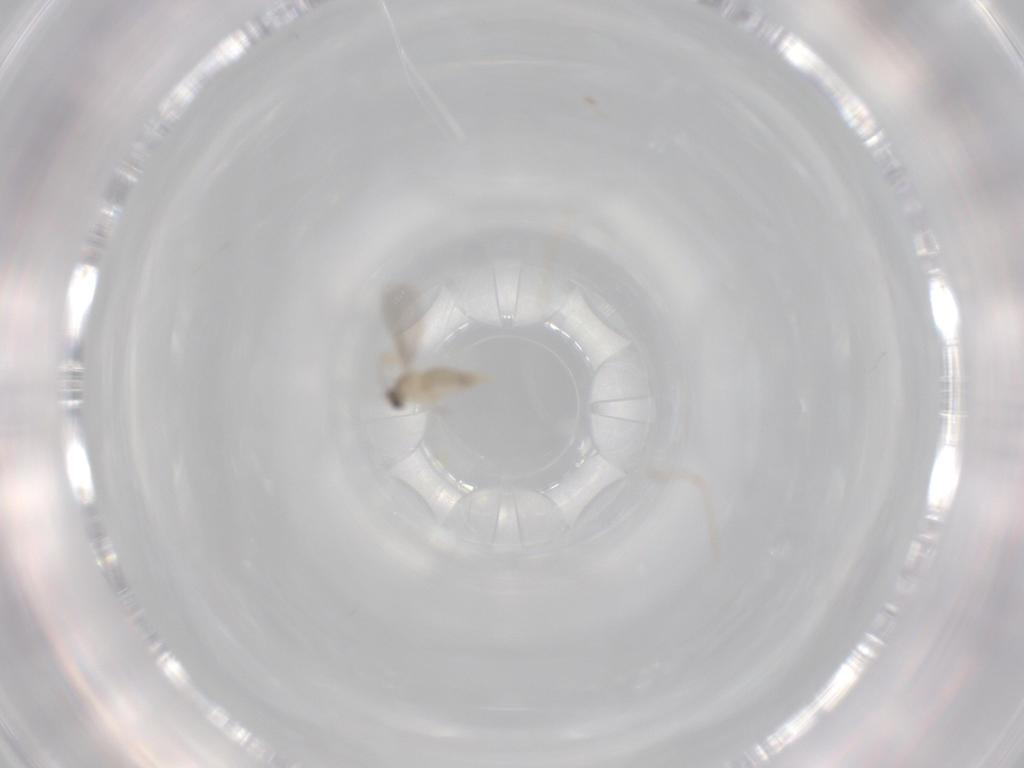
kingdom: Animalia
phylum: Arthropoda
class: Insecta
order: Diptera
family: Cecidomyiidae
